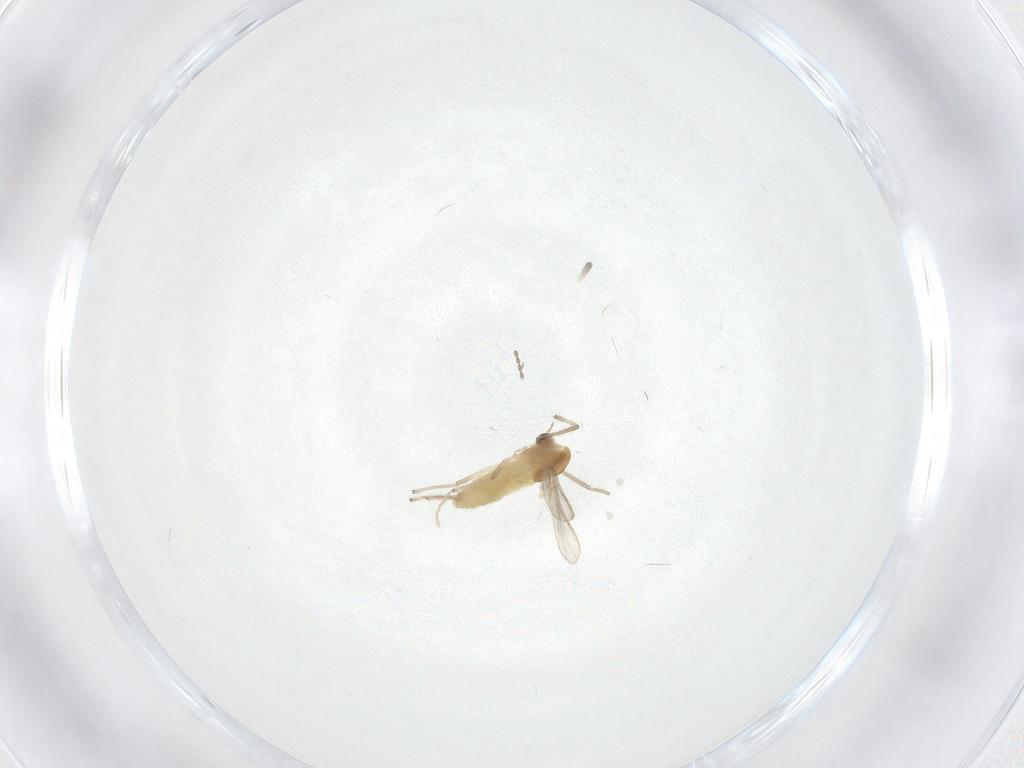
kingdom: Animalia
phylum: Arthropoda
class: Insecta
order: Diptera
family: Chironomidae
